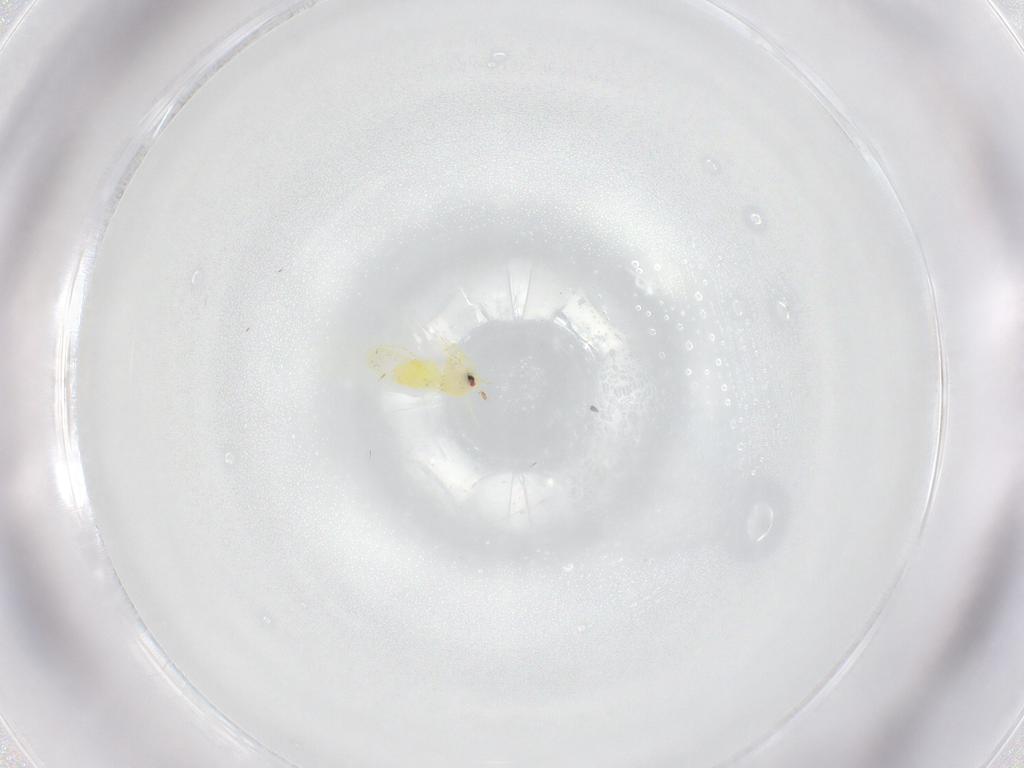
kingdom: Animalia
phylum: Arthropoda
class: Insecta
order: Hemiptera
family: Aleyrodidae
